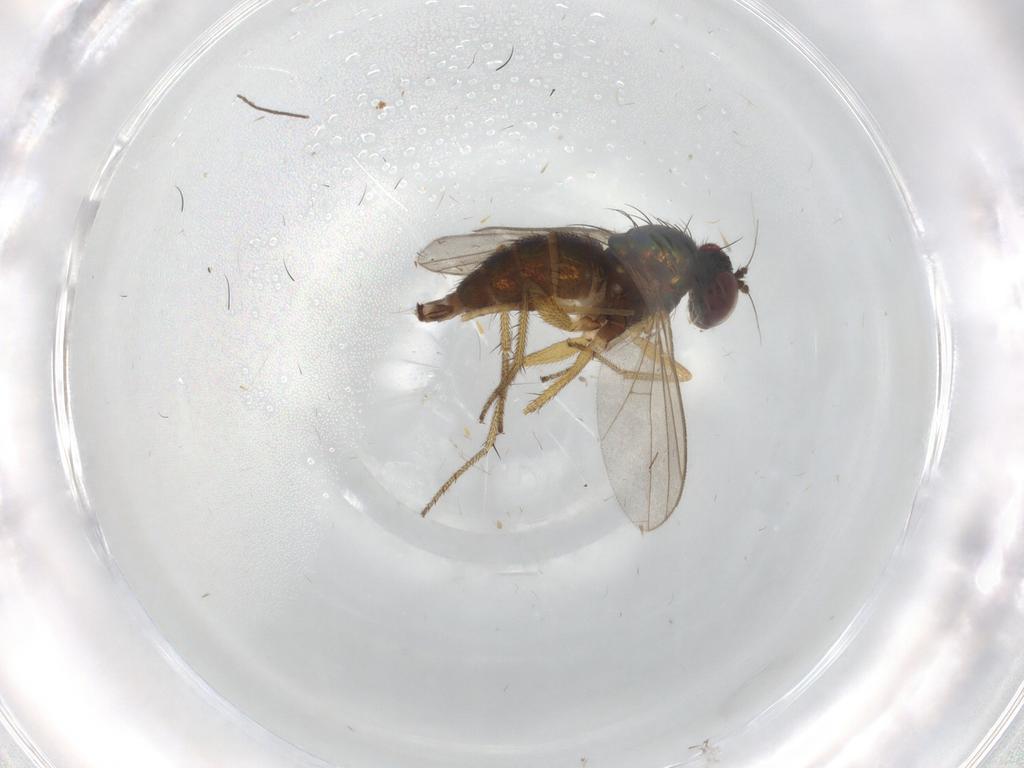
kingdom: Animalia
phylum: Arthropoda
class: Insecta
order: Diptera
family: Dolichopodidae
